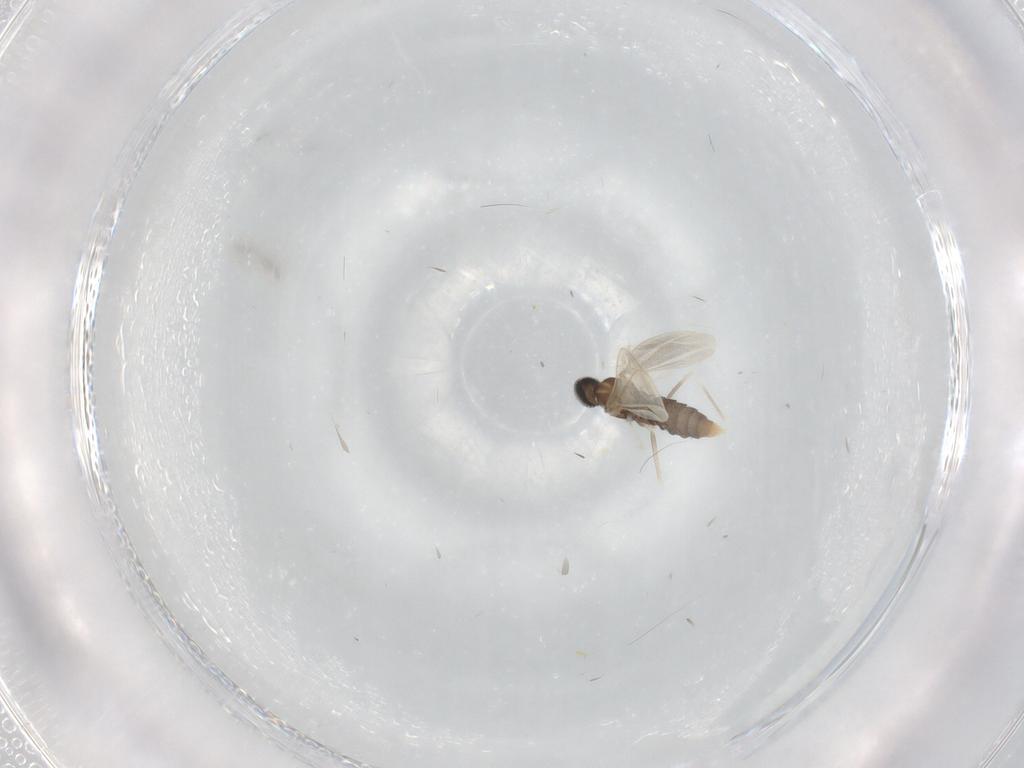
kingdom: Animalia
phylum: Arthropoda
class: Insecta
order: Diptera
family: Cecidomyiidae
